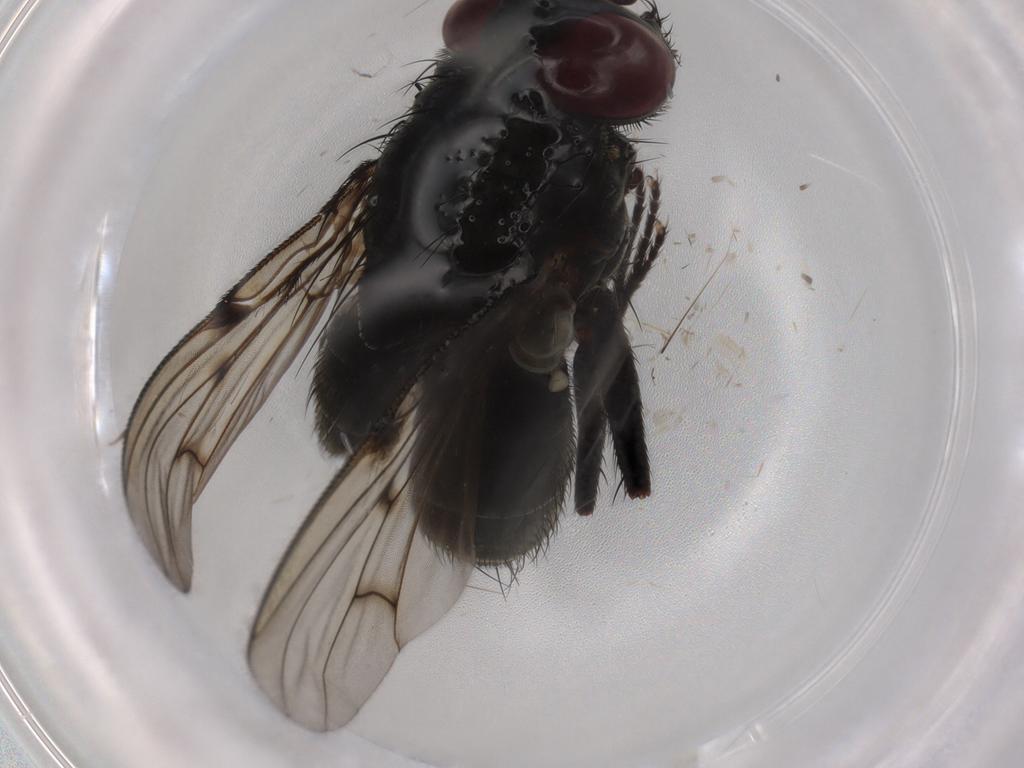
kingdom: Animalia
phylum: Arthropoda
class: Insecta
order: Diptera
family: Muscidae
